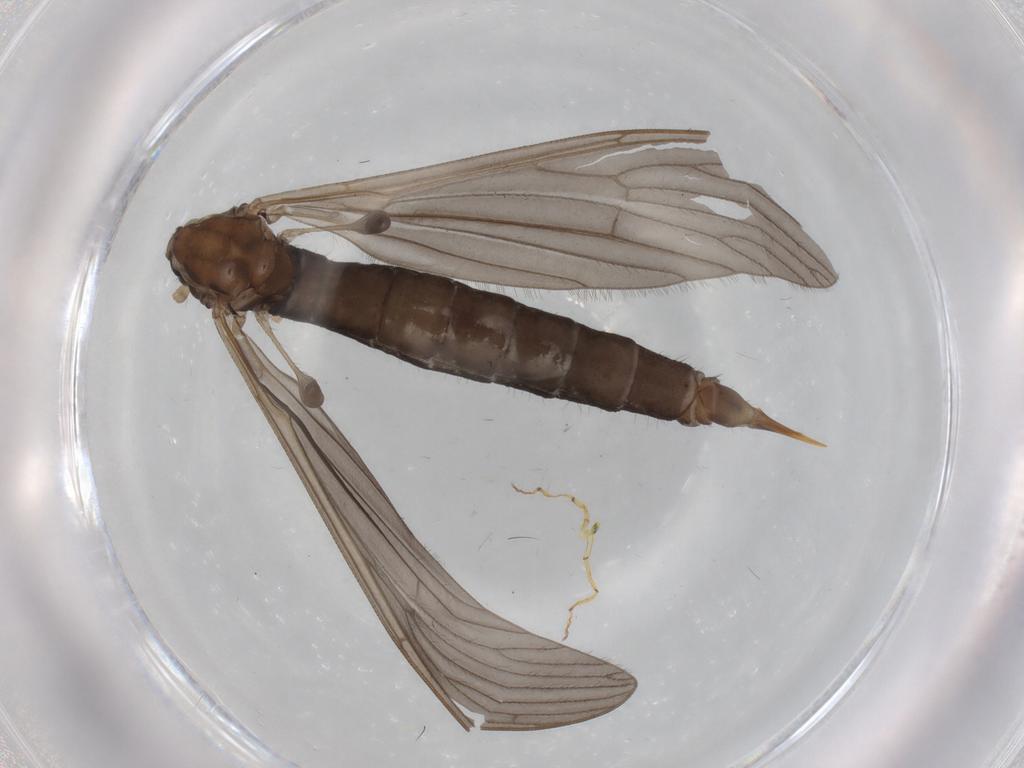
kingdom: Animalia
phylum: Arthropoda
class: Insecta
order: Diptera
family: Limoniidae
